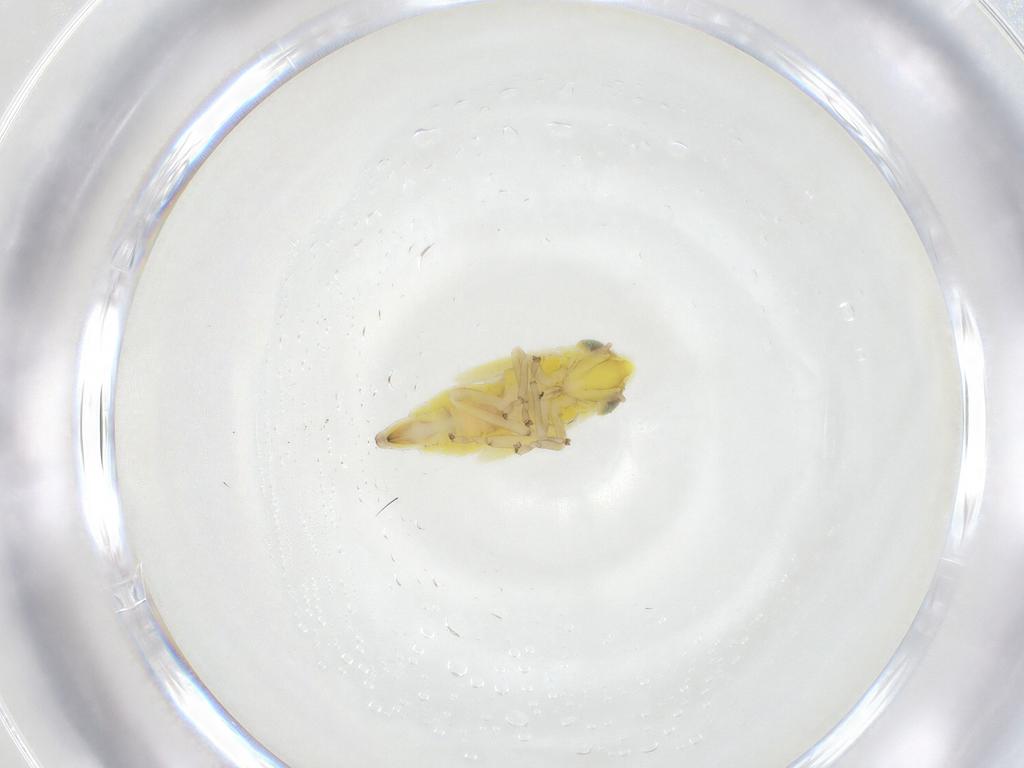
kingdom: Animalia
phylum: Arthropoda
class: Insecta
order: Hemiptera
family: Cicadellidae
